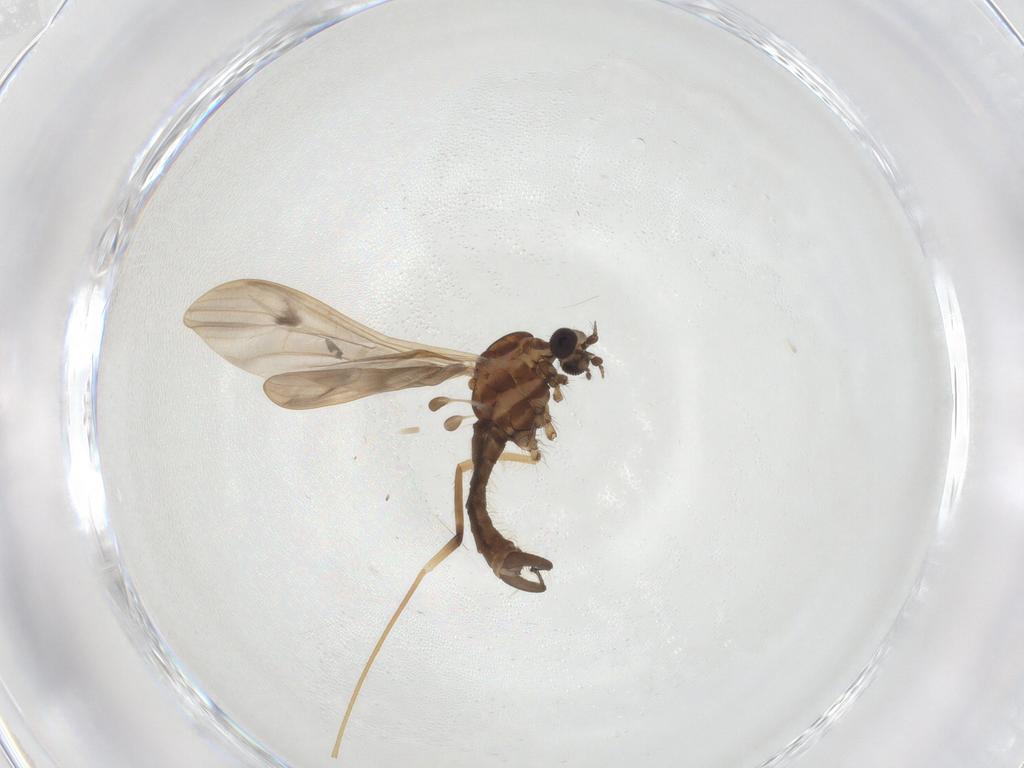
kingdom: Animalia
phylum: Arthropoda
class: Insecta
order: Diptera
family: Limoniidae
